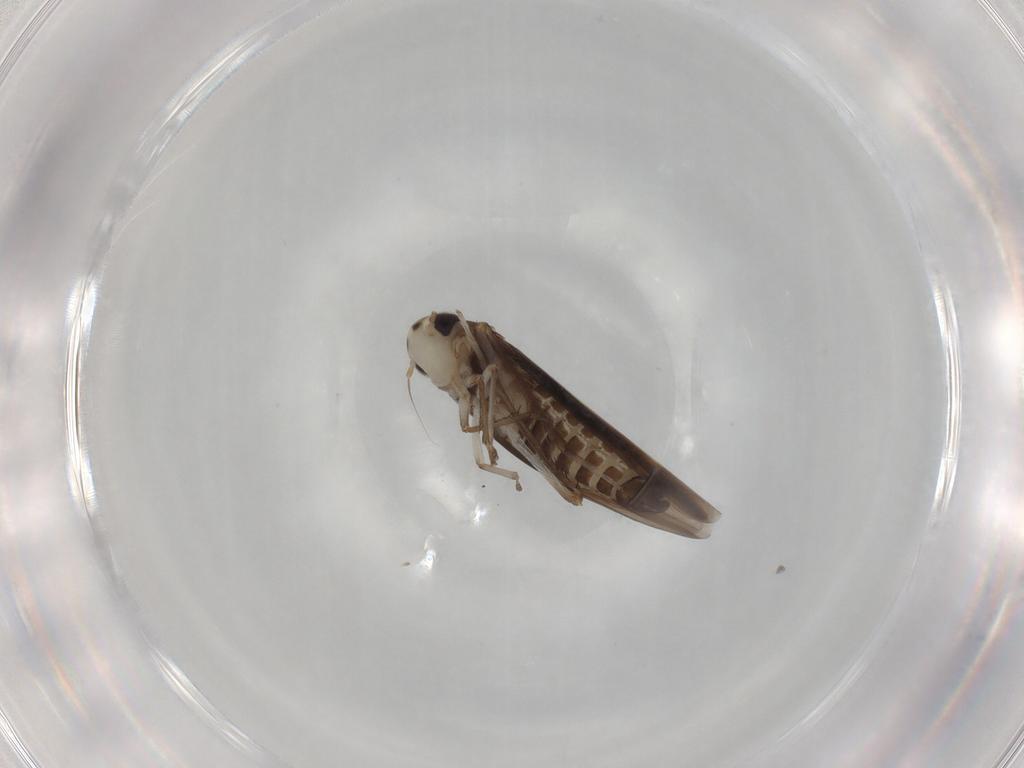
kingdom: Animalia
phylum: Arthropoda
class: Insecta
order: Hemiptera
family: Cicadellidae
